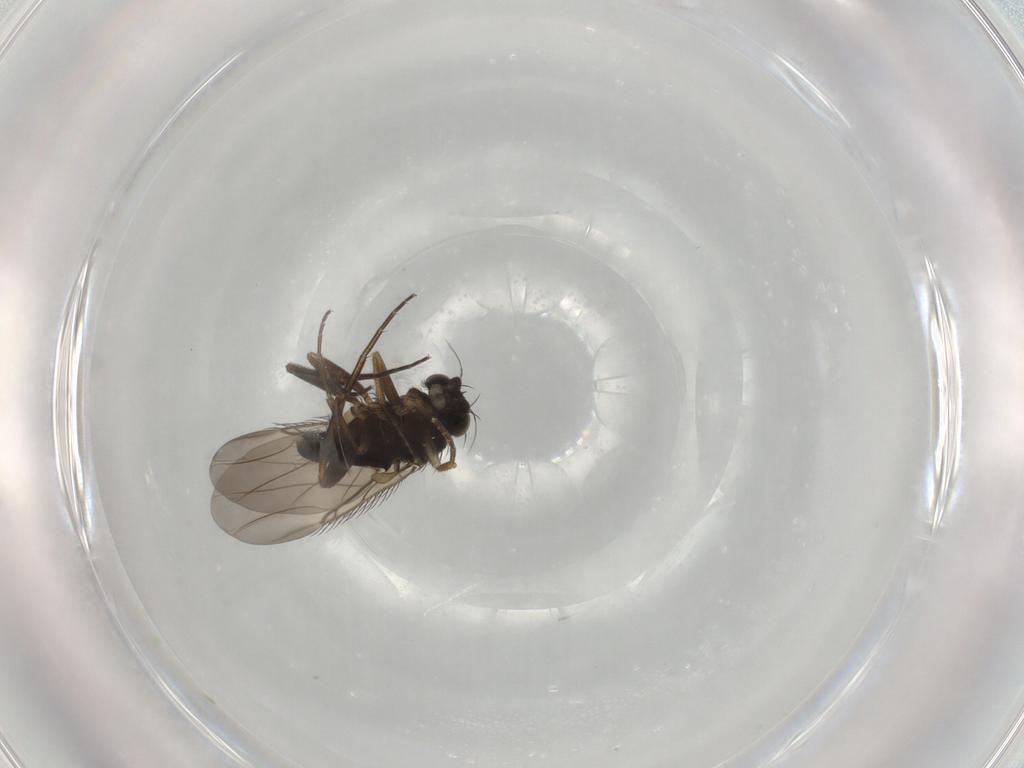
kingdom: Animalia
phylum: Arthropoda
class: Insecta
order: Diptera
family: Phoridae
